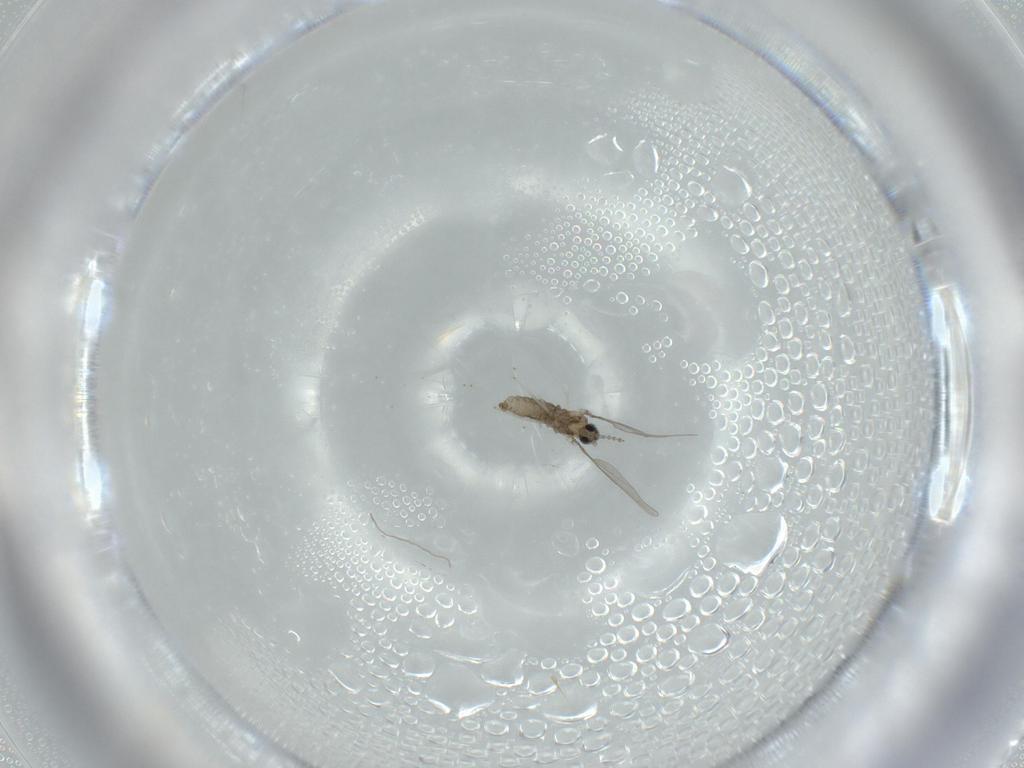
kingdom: Animalia
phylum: Arthropoda
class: Insecta
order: Diptera
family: Cecidomyiidae
